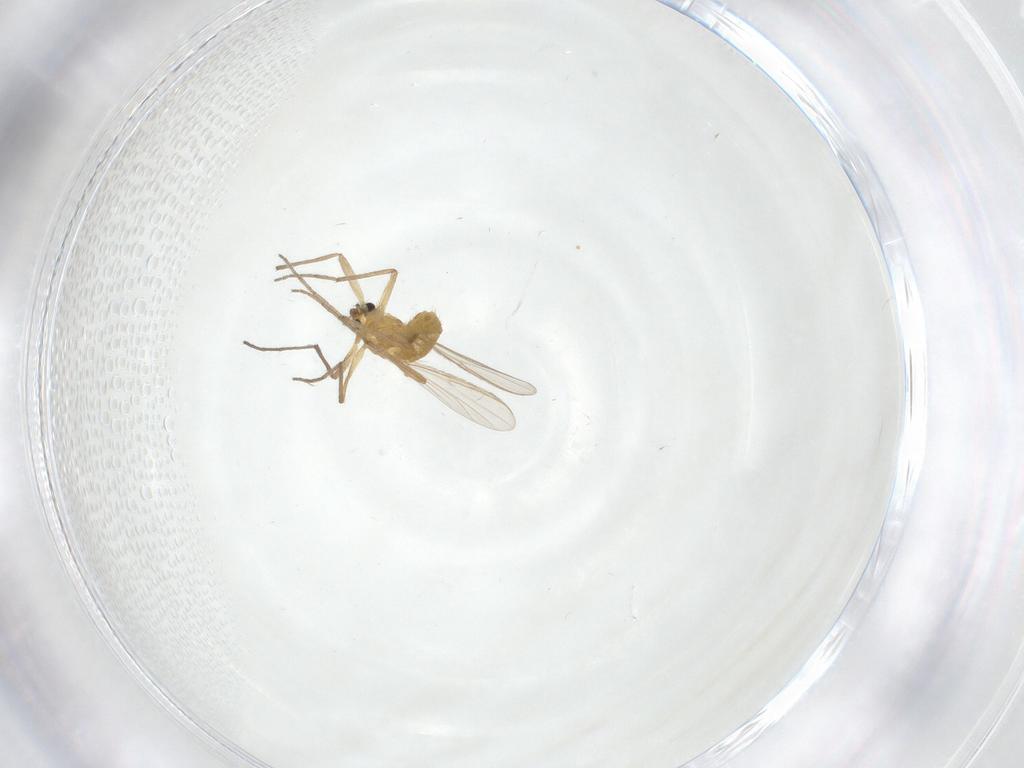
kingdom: Animalia
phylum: Arthropoda
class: Insecta
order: Diptera
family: Chironomidae
